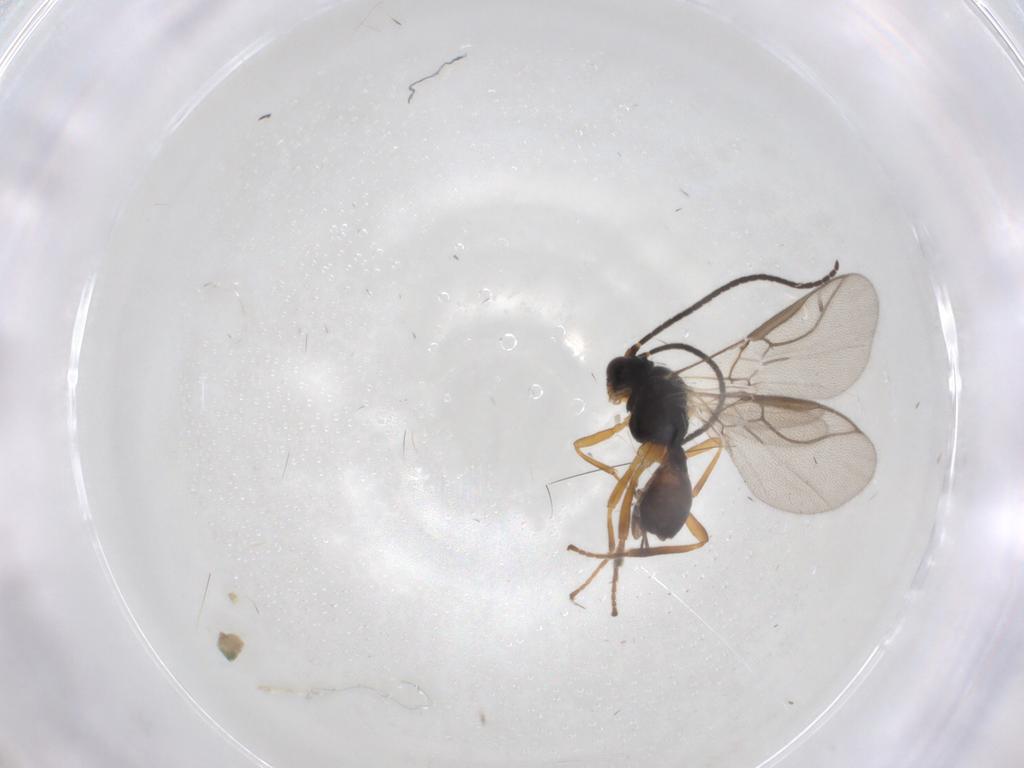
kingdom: Animalia
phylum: Arthropoda
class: Insecta
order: Hymenoptera
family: Braconidae
